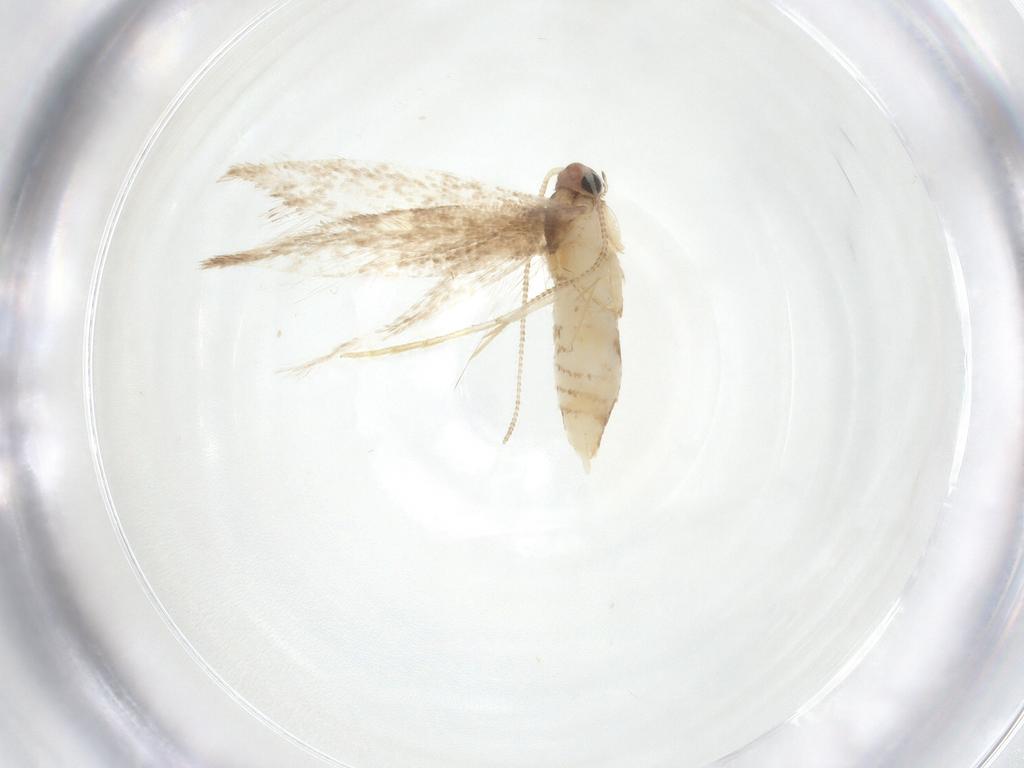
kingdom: Animalia
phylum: Arthropoda
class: Insecta
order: Lepidoptera
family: Tineidae
